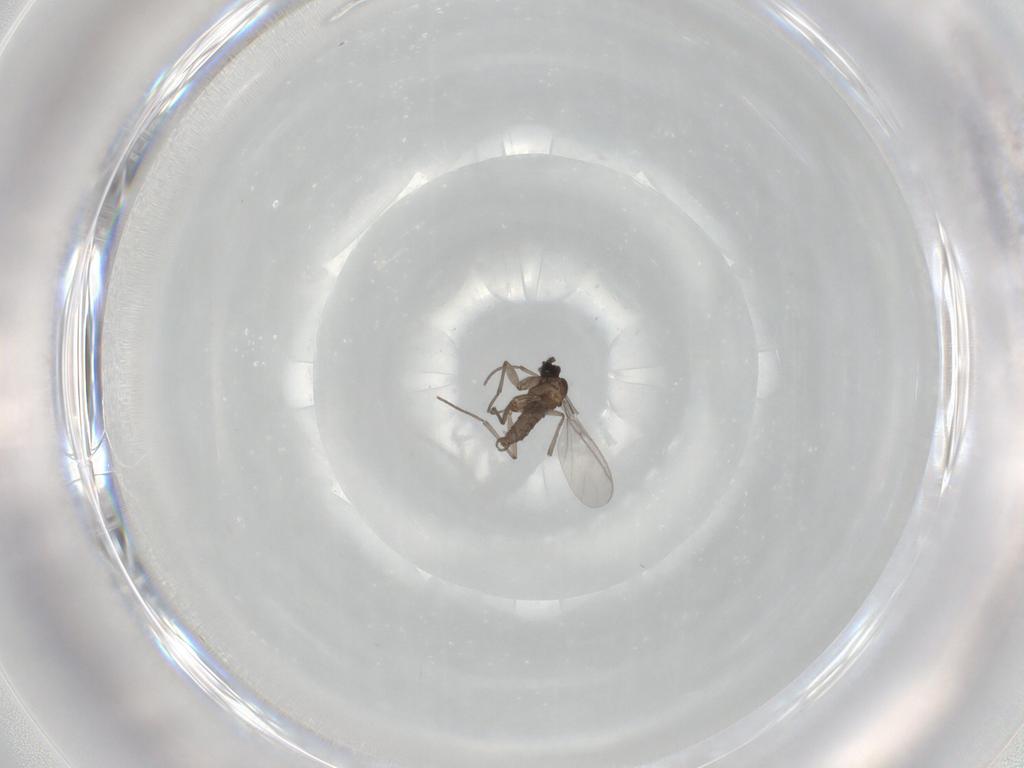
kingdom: Animalia
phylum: Arthropoda
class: Insecta
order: Diptera
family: Sciaridae
